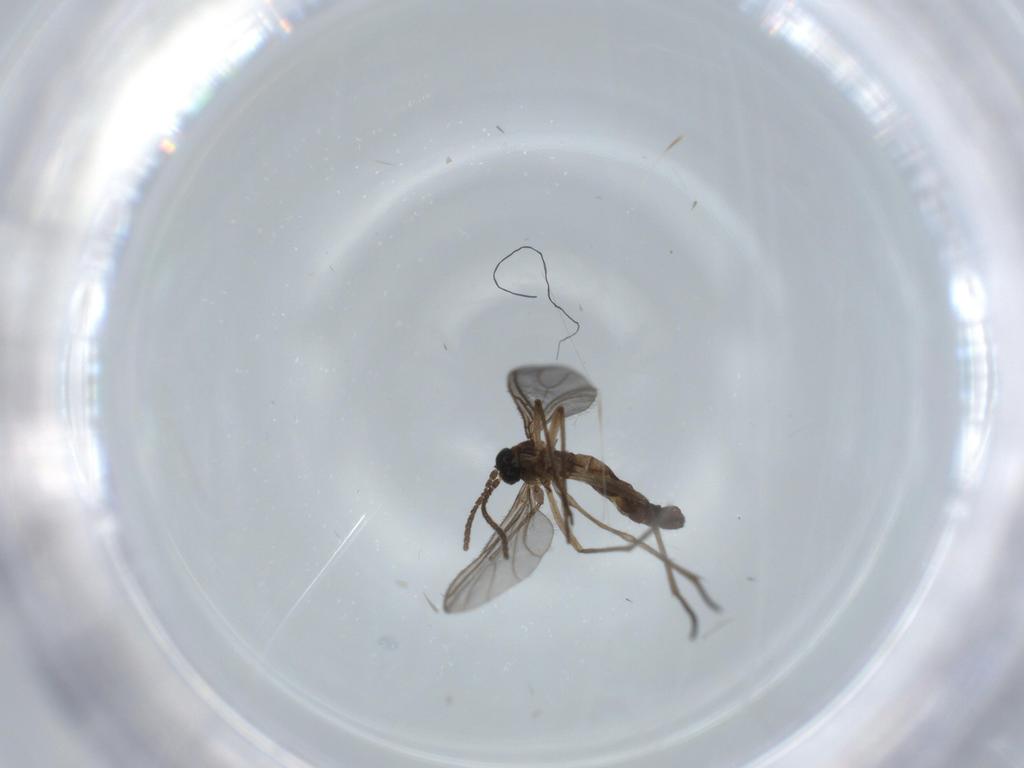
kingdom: Animalia
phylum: Arthropoda
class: Insecta
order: Diptera
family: Sciaridae
